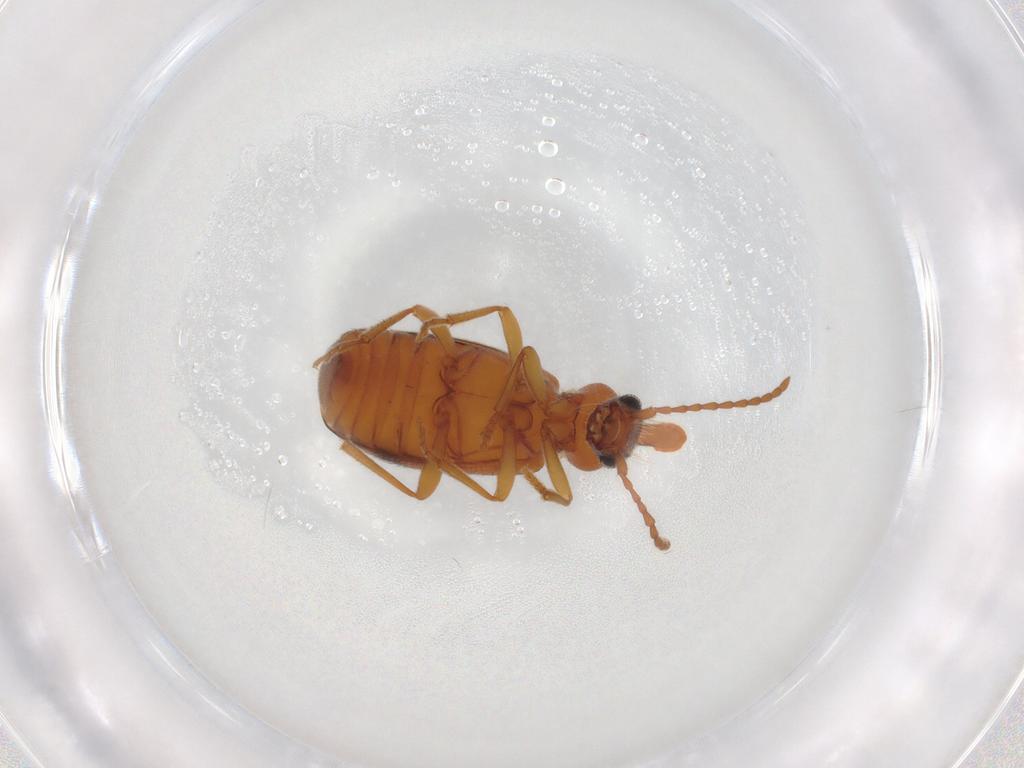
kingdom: Animalia
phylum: Arthropoda
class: Insecta
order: Coleoptera
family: Anthicidae
